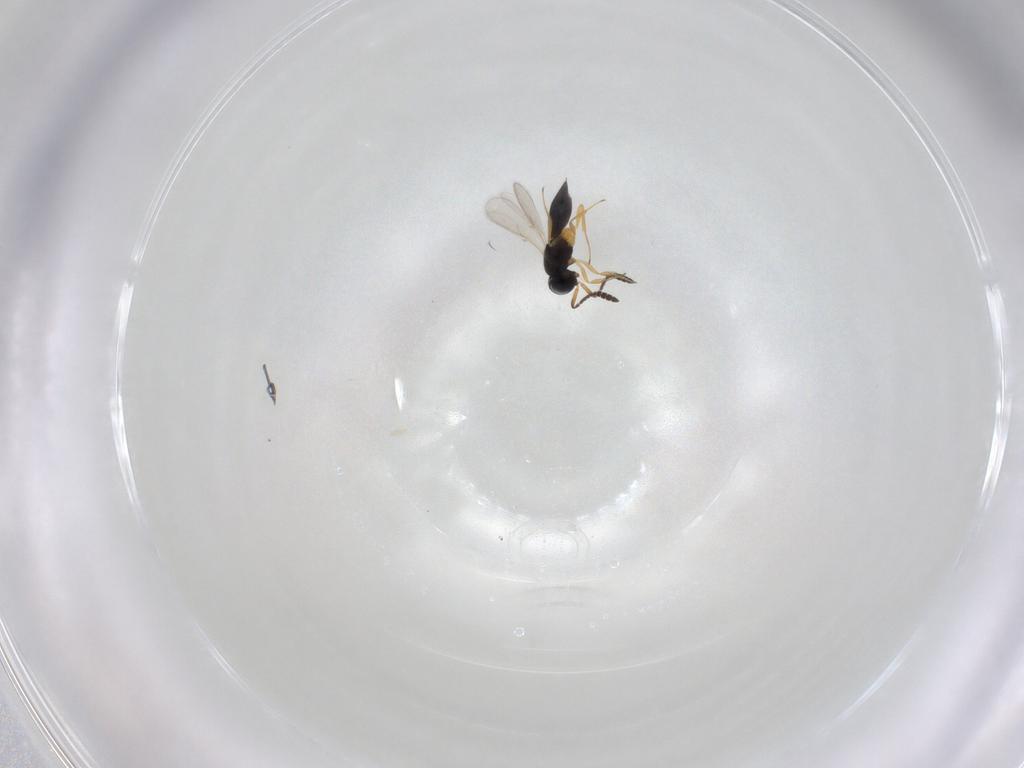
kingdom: Animalia
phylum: Arthropoda
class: Insecta
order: Hymenoptera
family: Scelionidae
